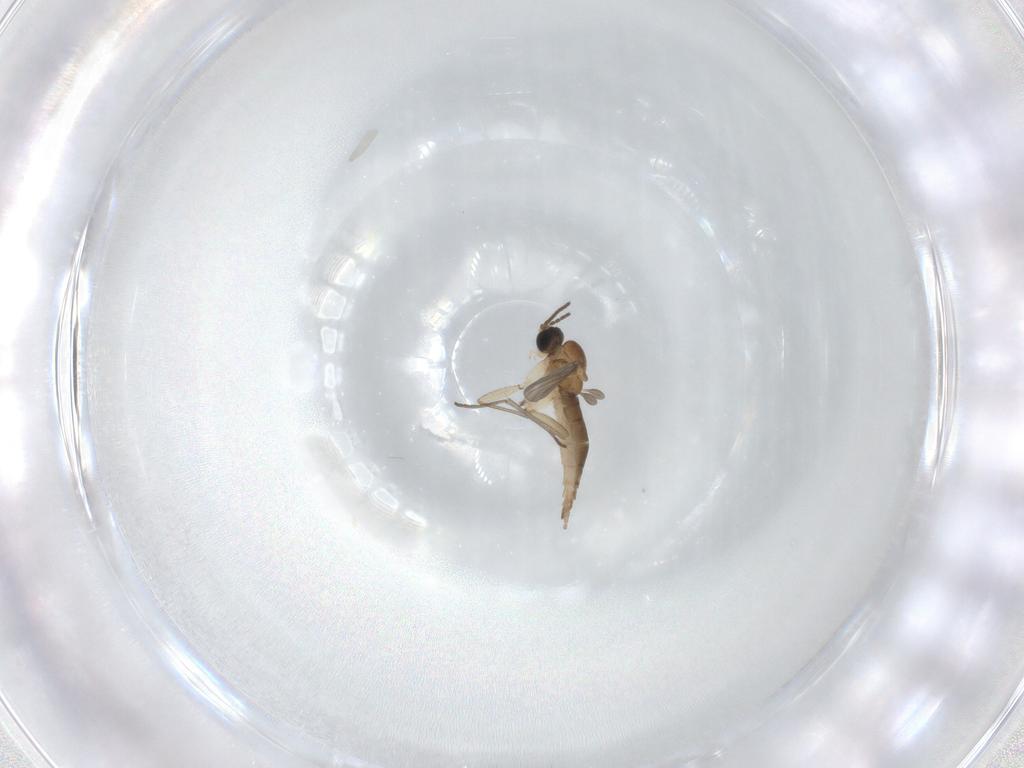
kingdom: Animalia
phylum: Arthropoda
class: Insecta
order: Diptera
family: Sciaridae
